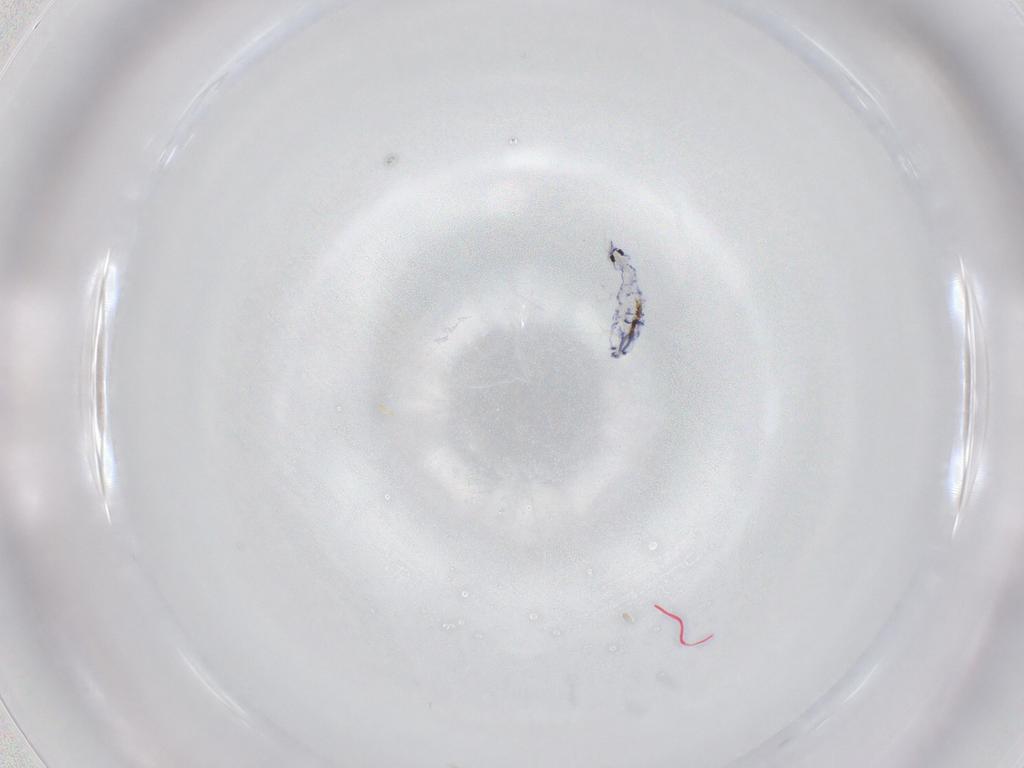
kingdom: Animalia
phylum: Arthropoda
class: Collembola
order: Entomobryomorpha
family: Entomobryidae
